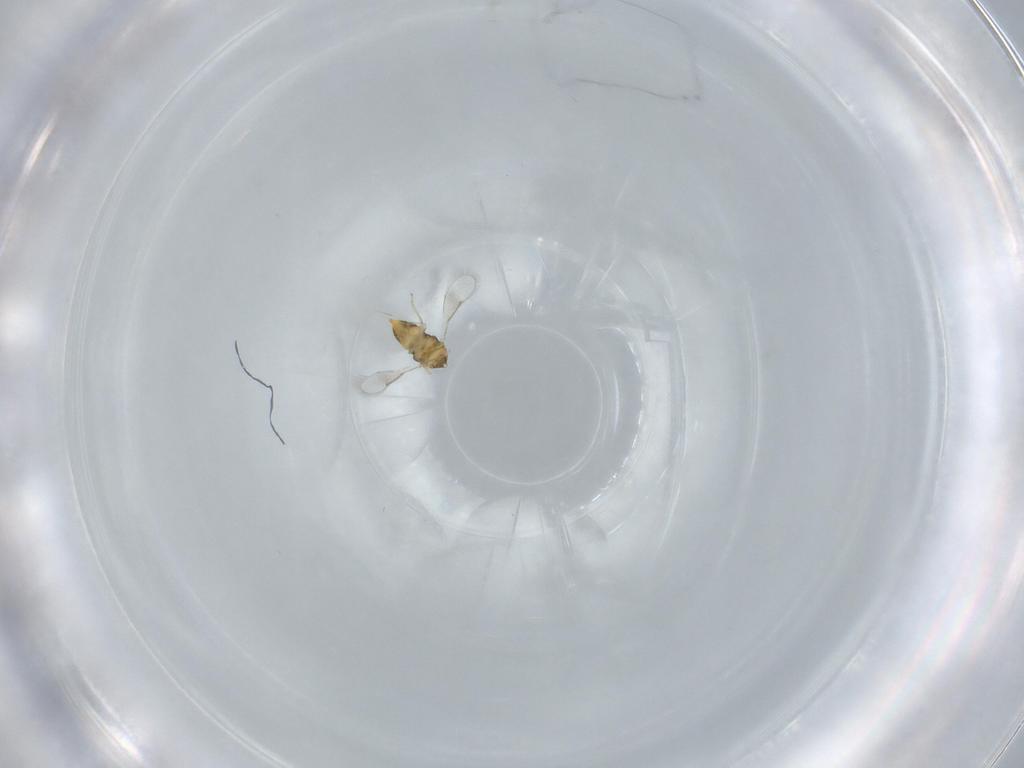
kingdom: Animalia
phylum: Arthropoda
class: Insecta
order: Hymenoptera
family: Aphelinidae
